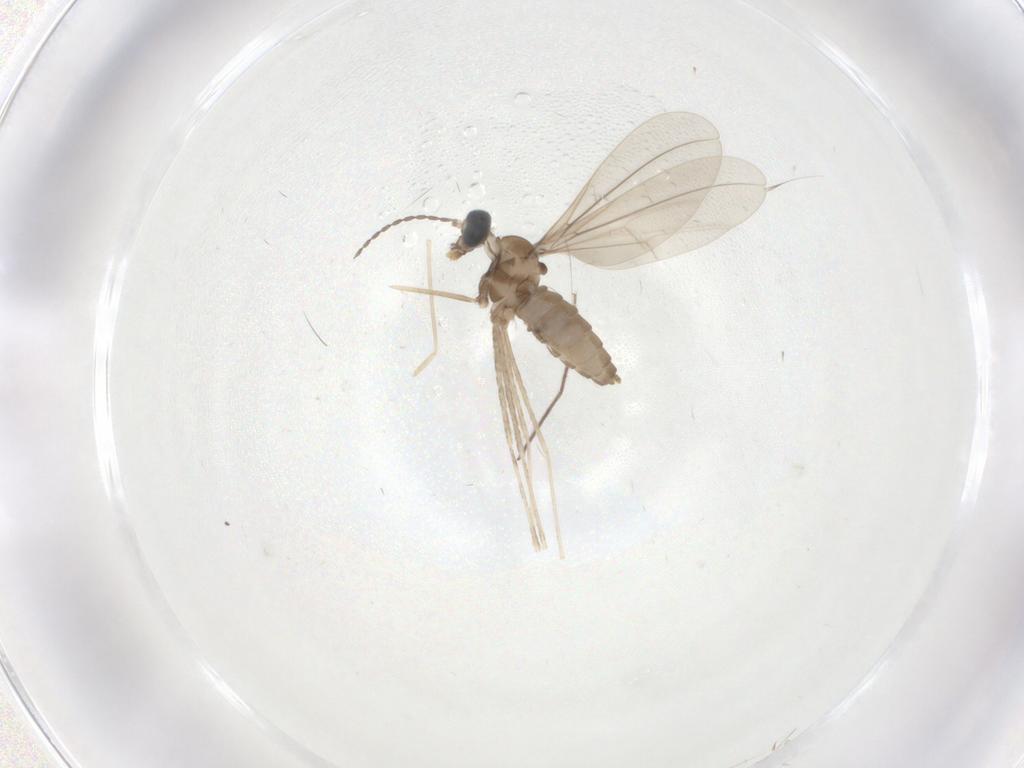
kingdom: Animalia
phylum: Arthropoda
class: Insecta
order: Diptera
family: Cecidomyiidae
